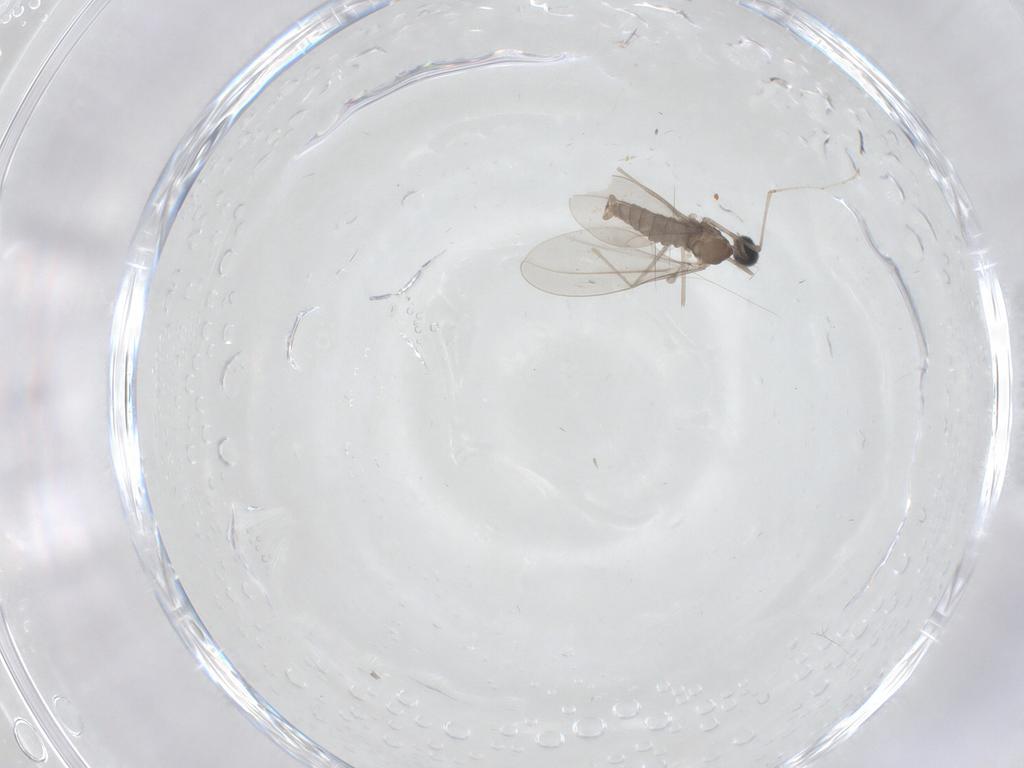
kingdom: Animalia
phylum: Arthropoda
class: Insecta
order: Diptera
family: Cecidomyiidae
